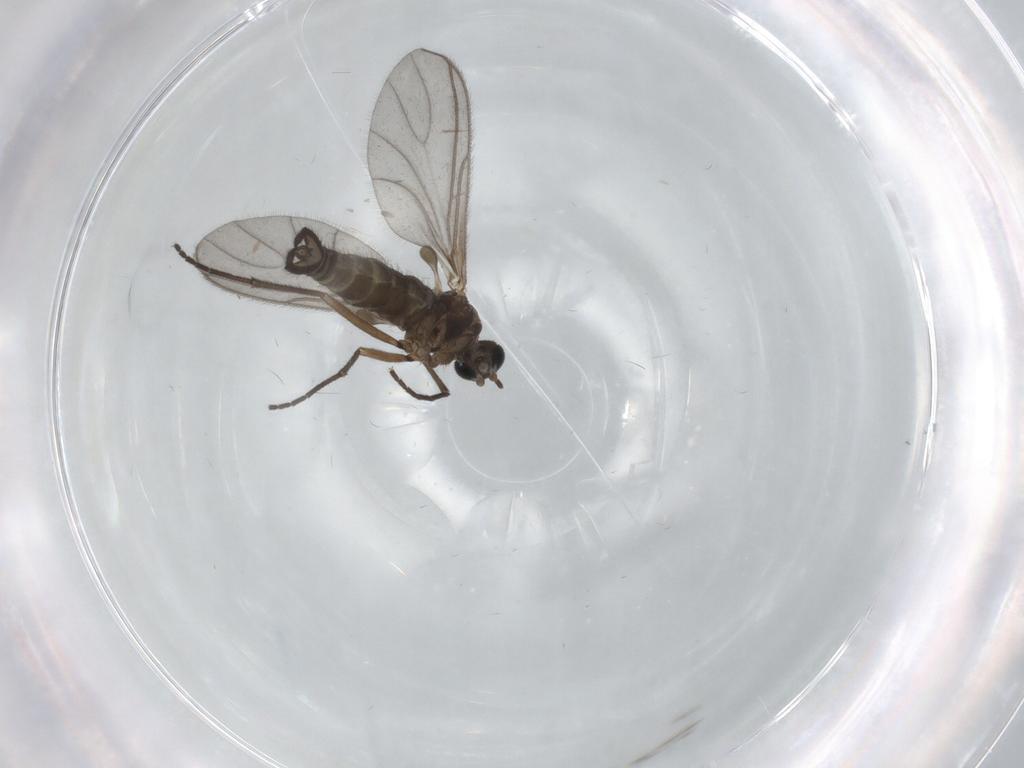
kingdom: Animalia
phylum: Arthropoda
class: Insecta
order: Diptera
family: Sciaridae
